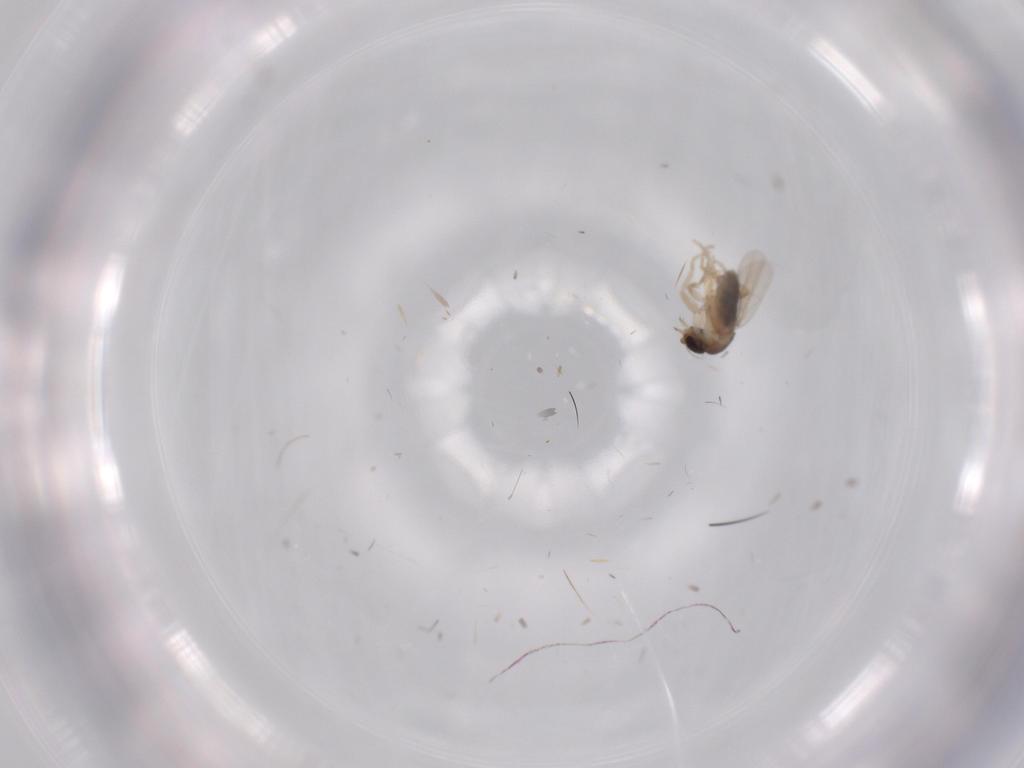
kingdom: Animalia
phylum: Arthropoda
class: Insecta
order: Diptera
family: Phoridae
